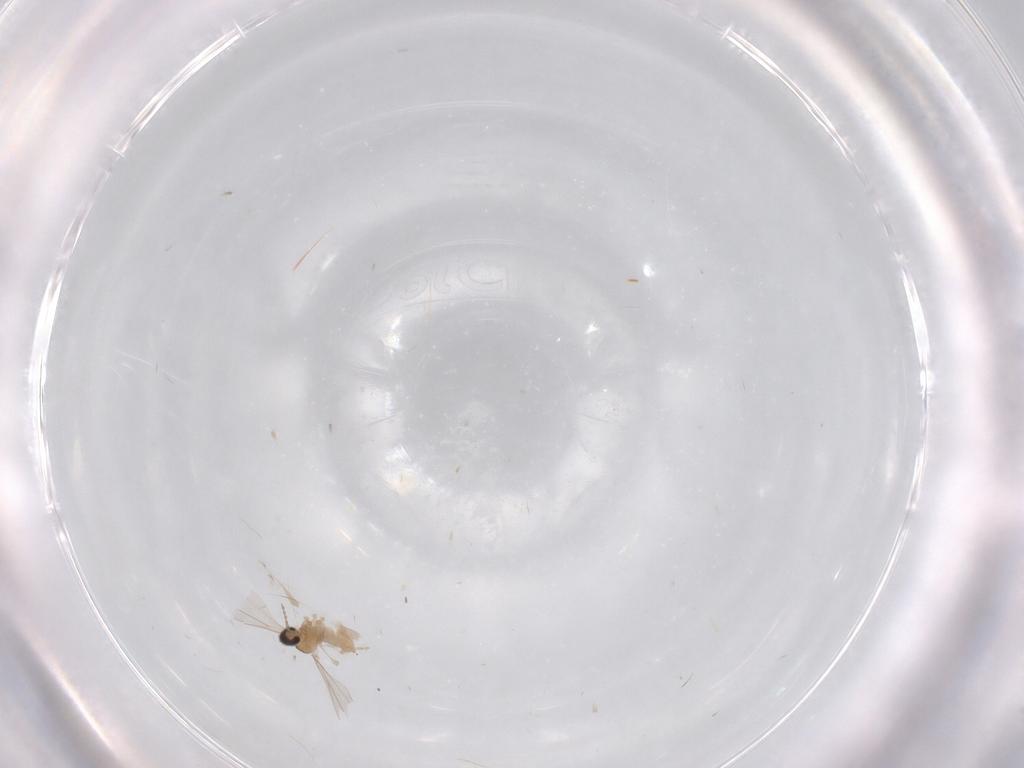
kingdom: Animalia
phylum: Arthropoda
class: Insecta
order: Diptera
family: Cecidomyiidae
